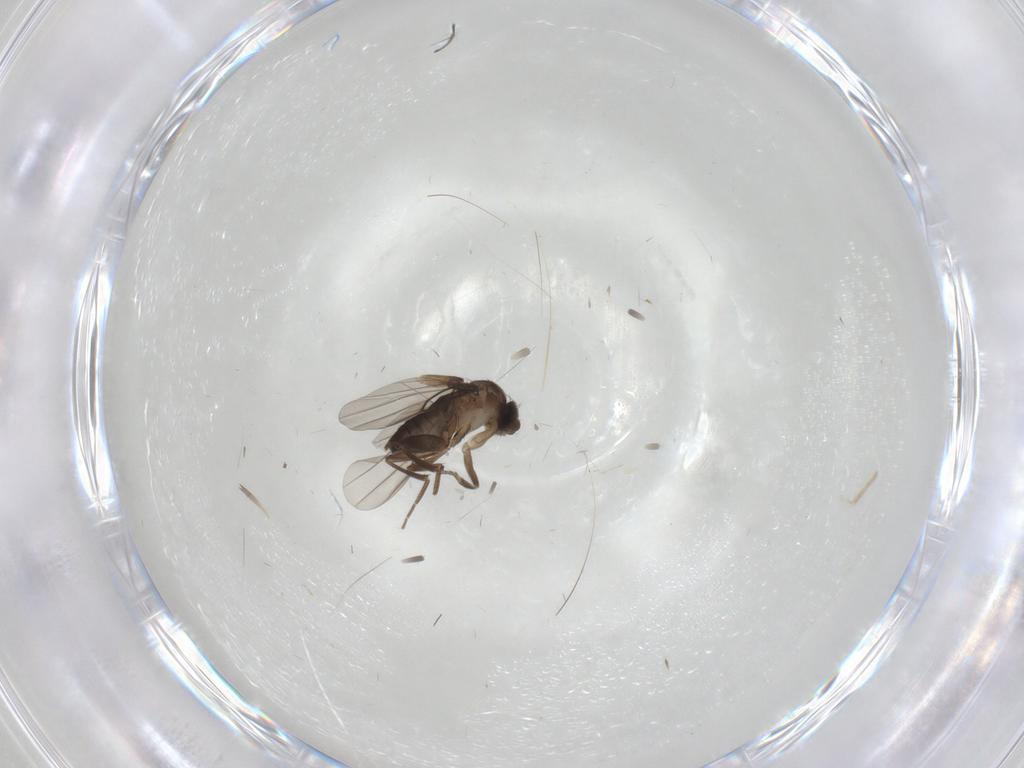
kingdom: Animalia
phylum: Arthropoda
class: Insecta
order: Diptera
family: Phoridae
